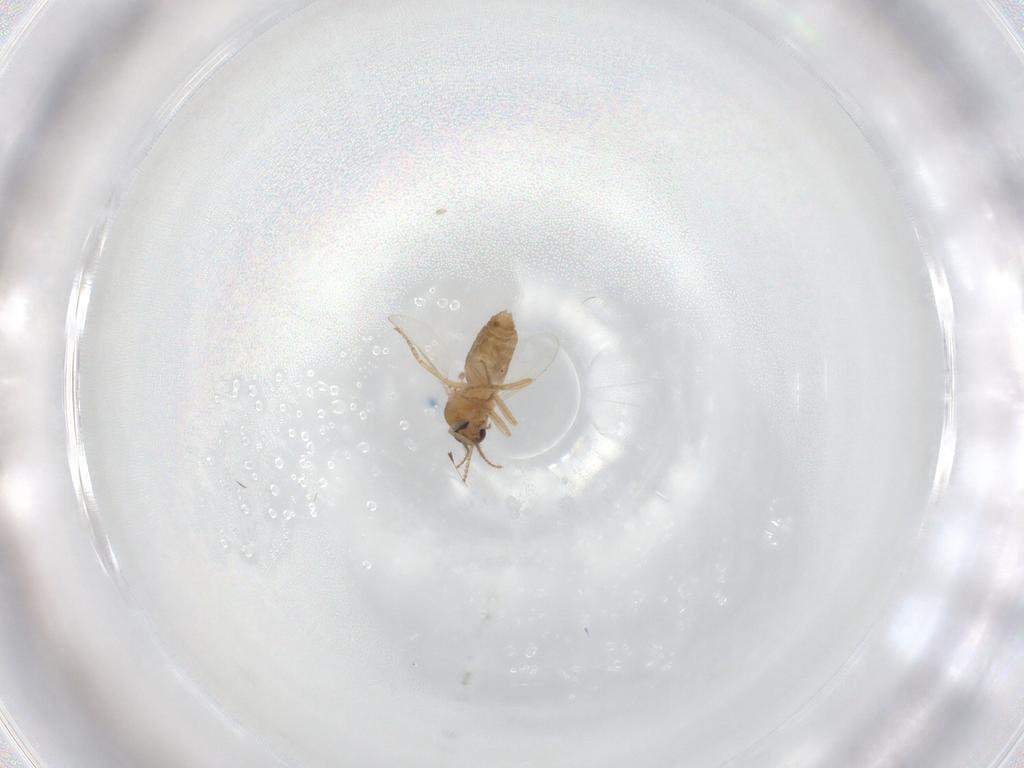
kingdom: Animalia
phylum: Arthropoda
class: Insecta
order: Diptera
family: Ceratopogonidae
